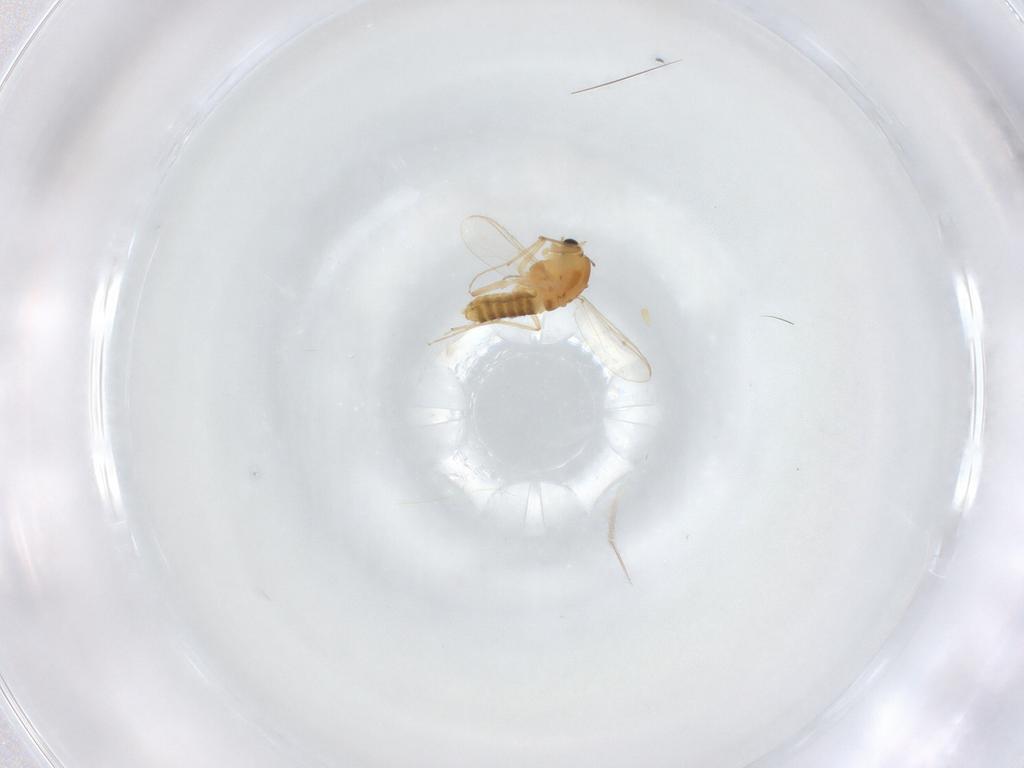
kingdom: Animalia
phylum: Arthropoda
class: Insecta
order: Diptera
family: Chironomidae
